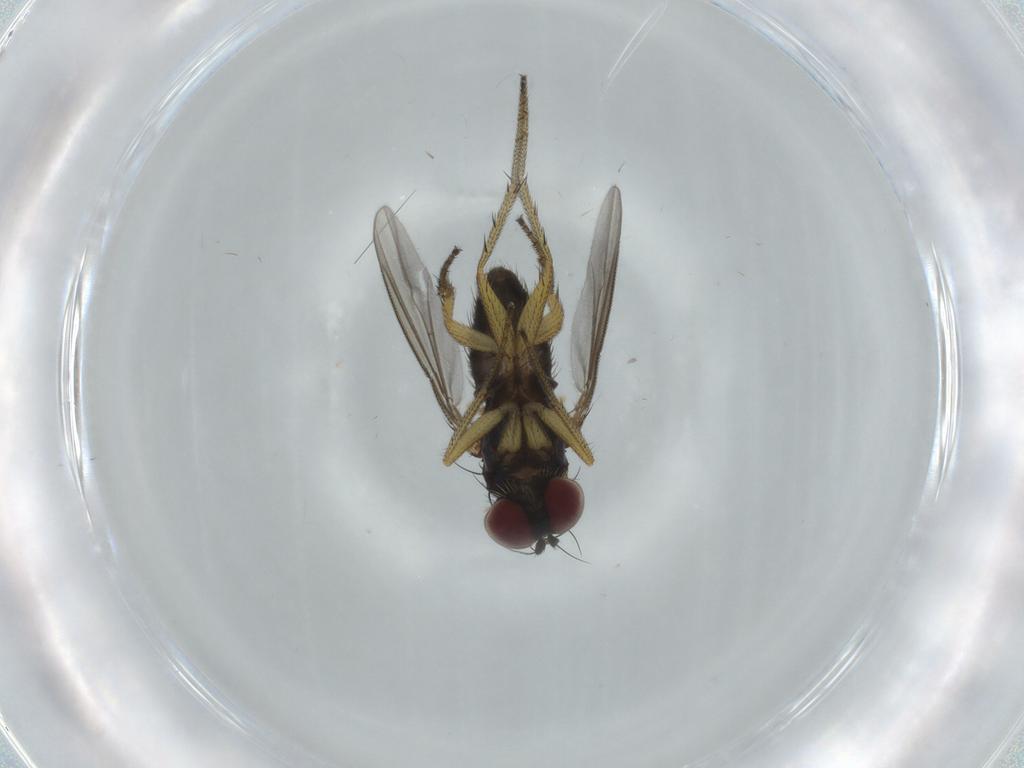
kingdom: Animalia
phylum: Arthropoda
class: Insecta
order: Diptera
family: Dolichopodidae
